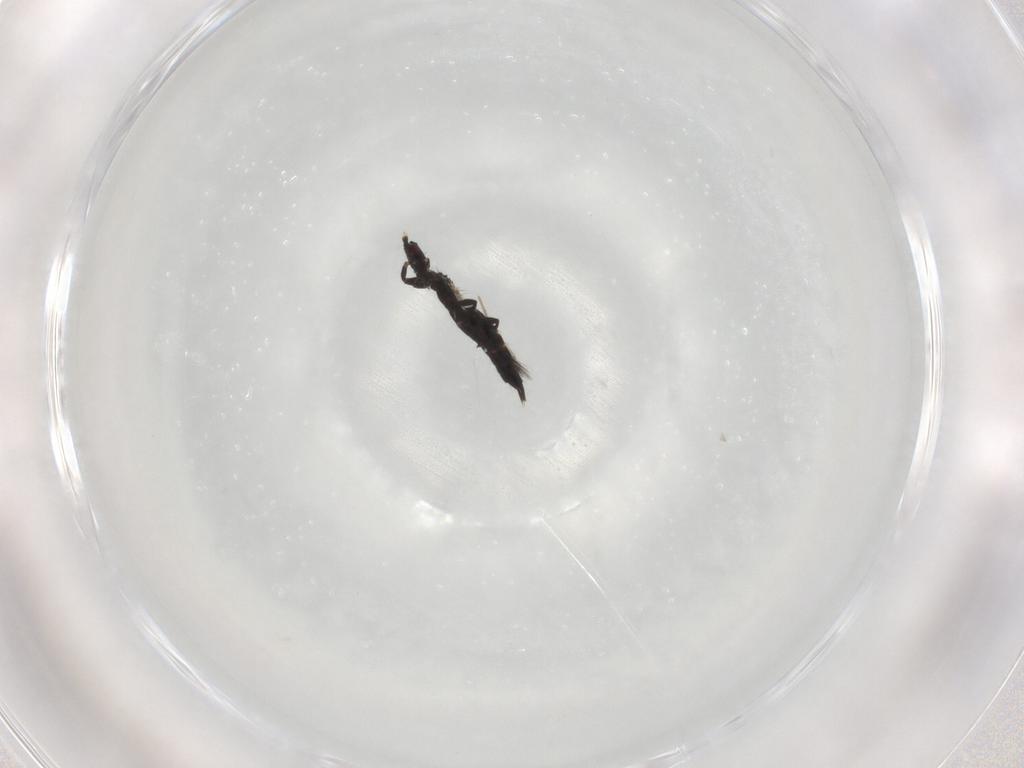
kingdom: Animalia
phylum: Arthropoda
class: Insecta
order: Thysanoptera
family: Phlaeothripidae
